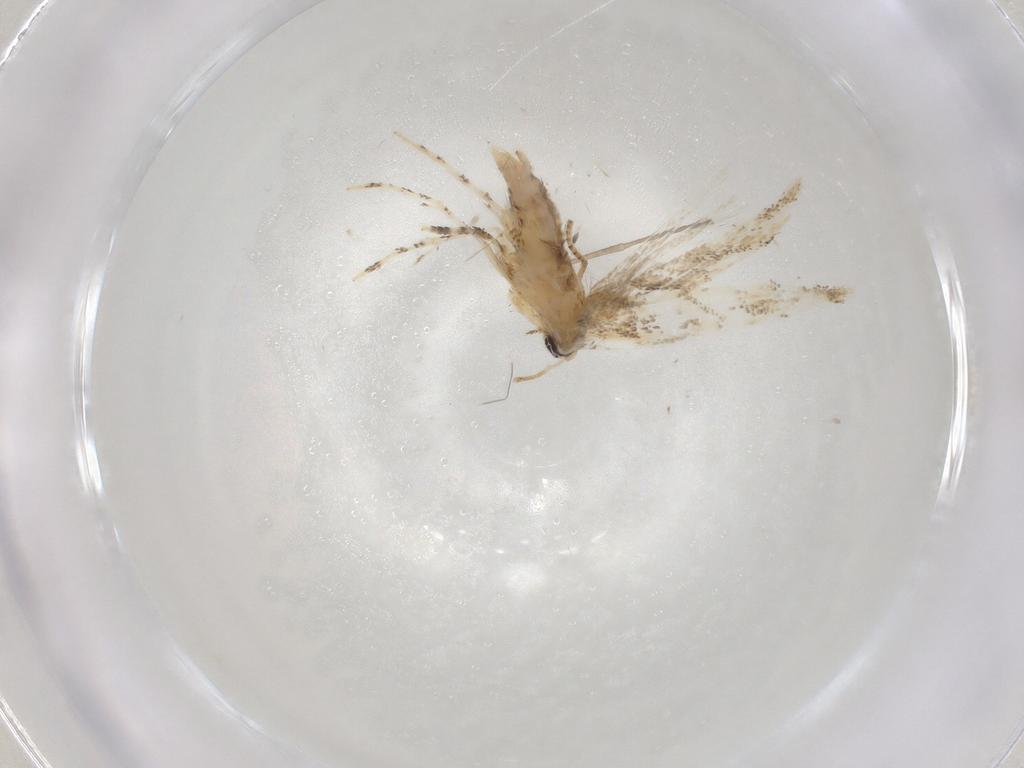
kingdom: Animalia
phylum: Arthropoda
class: Insecta
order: Lepidoptera
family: Gracillariidae
